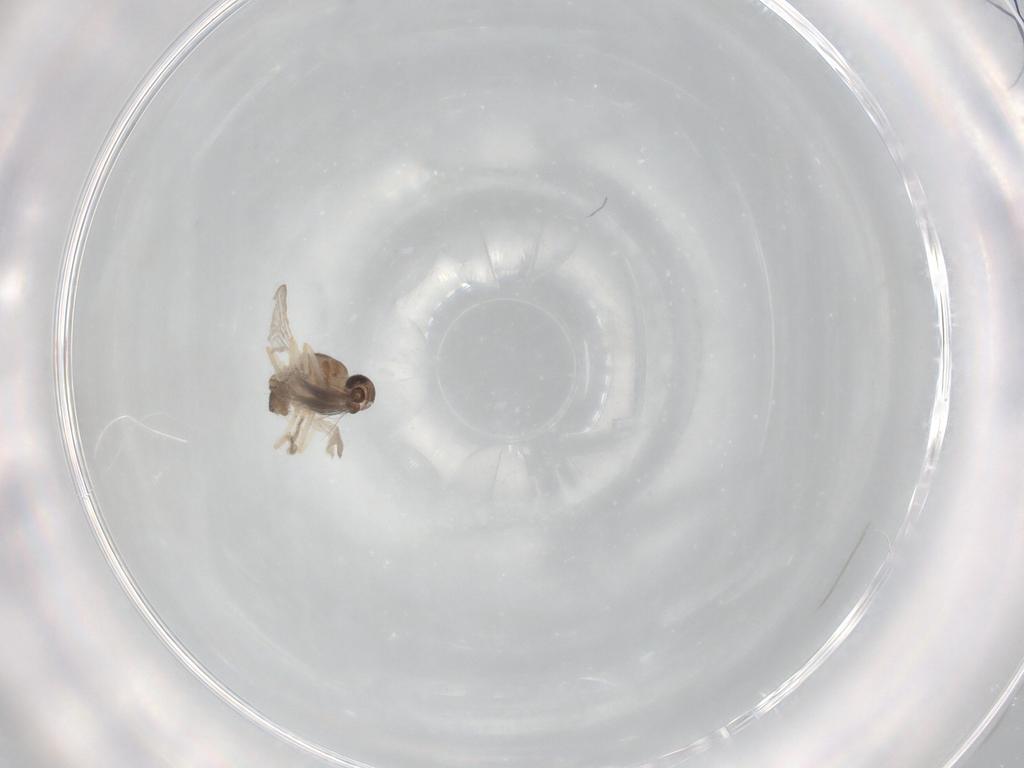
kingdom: Animalia
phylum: Arthropoda
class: Insecta
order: Diptera
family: Ceratopogonidae
